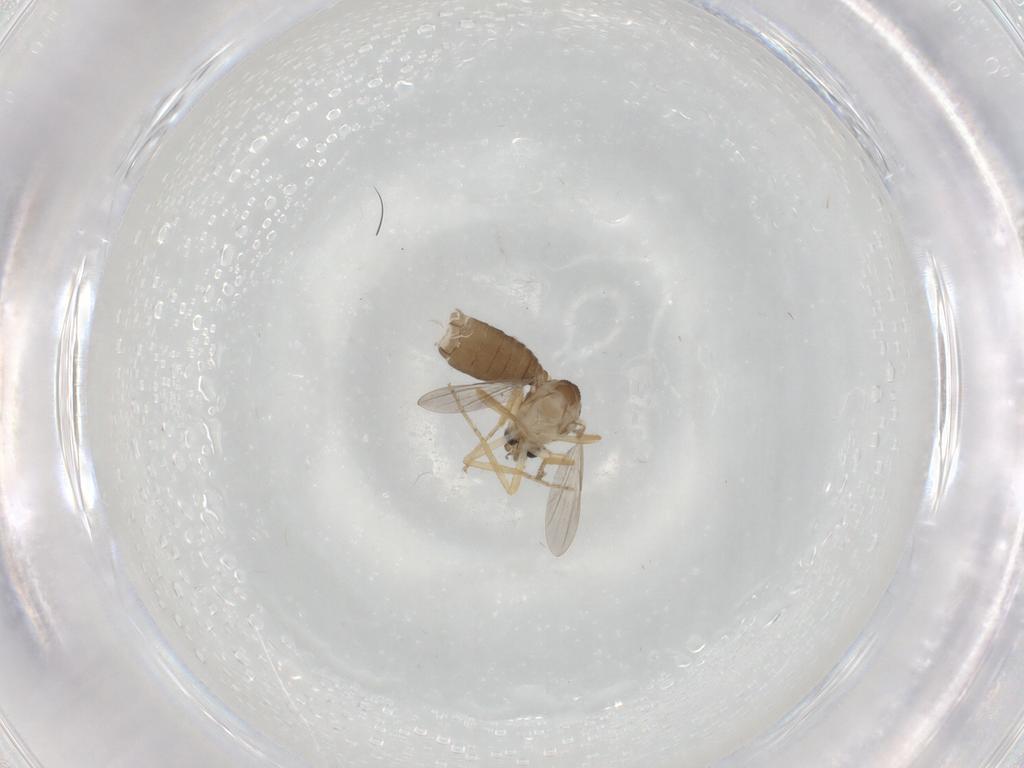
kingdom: Animalia
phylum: Arthropoda
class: Insecta
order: Diptera
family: Ceratopogonidae
